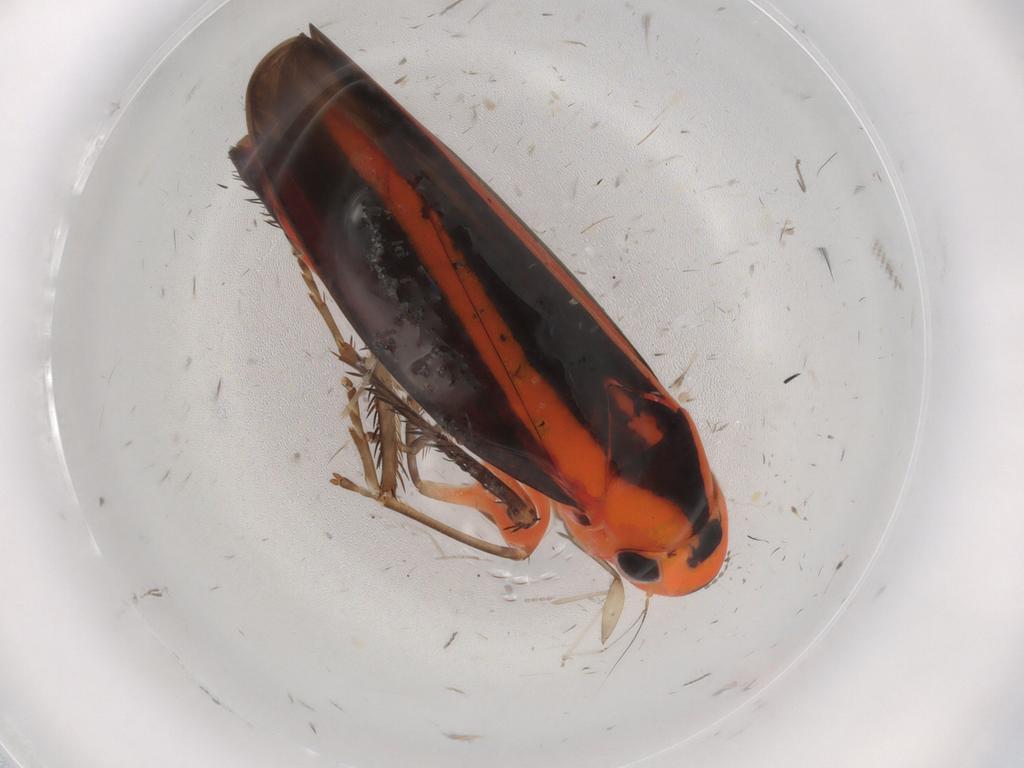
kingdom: Animalia
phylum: Arthropoda
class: Insecta
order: Hemiptera
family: Cicadellidae
